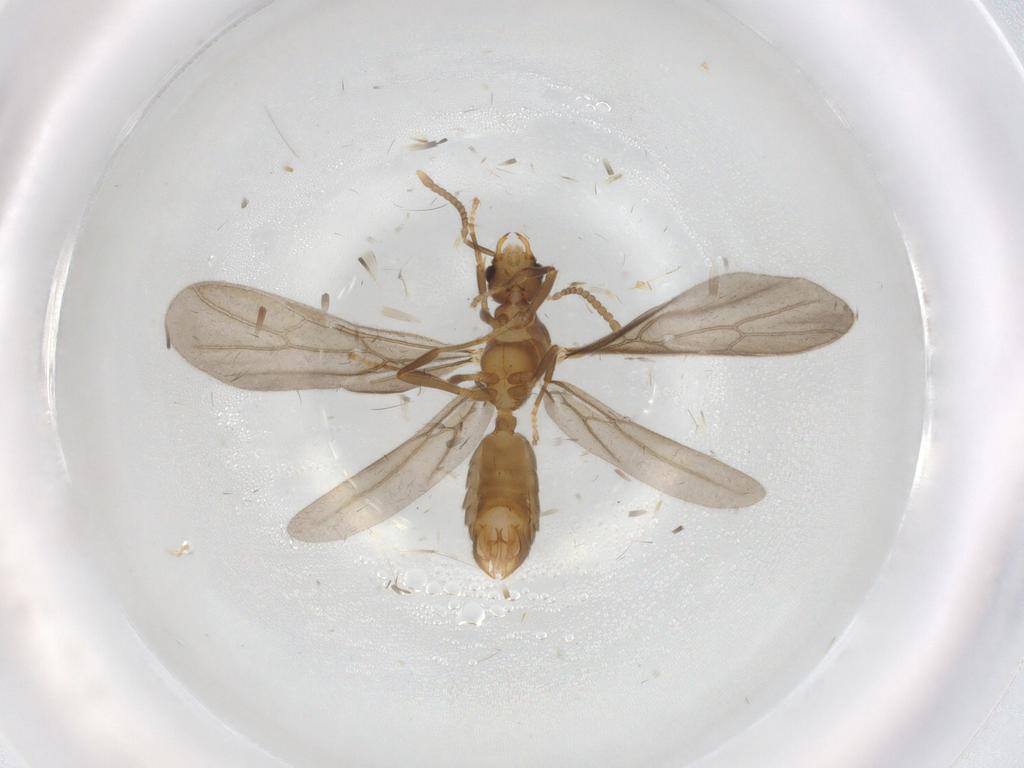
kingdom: Animalia
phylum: Arthropoda
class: Insecta
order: Hymenoptera
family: Formicidae
